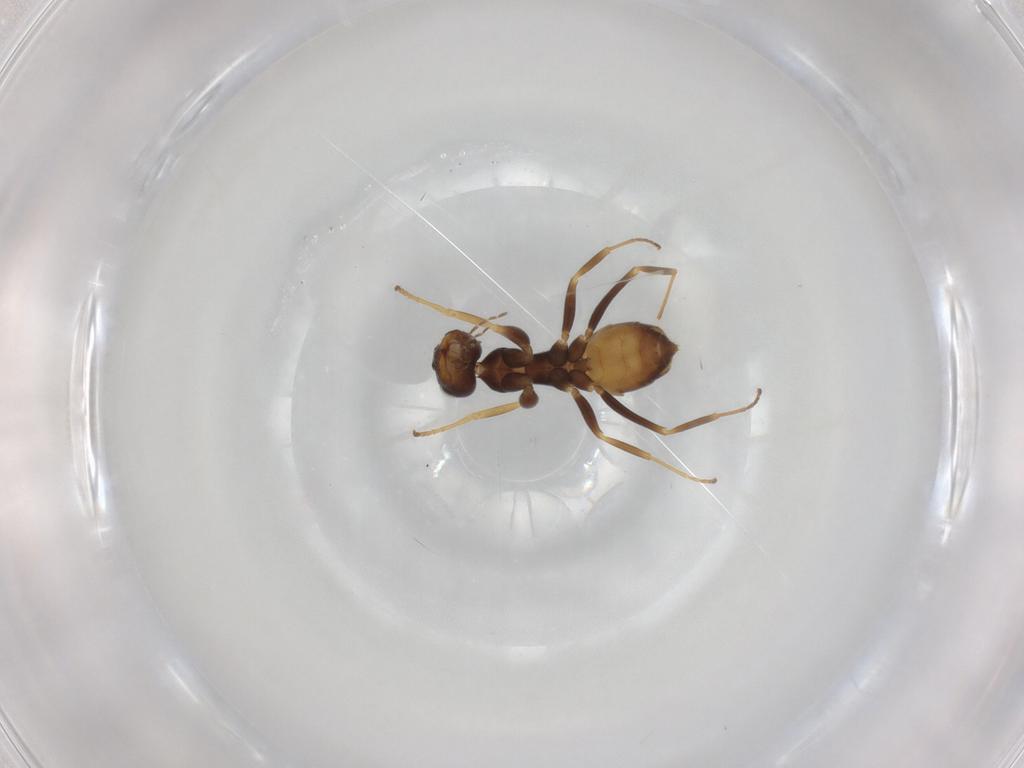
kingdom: Animalia
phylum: Arthropoda
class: Insecta
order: Hymenoptera
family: Formicidae
